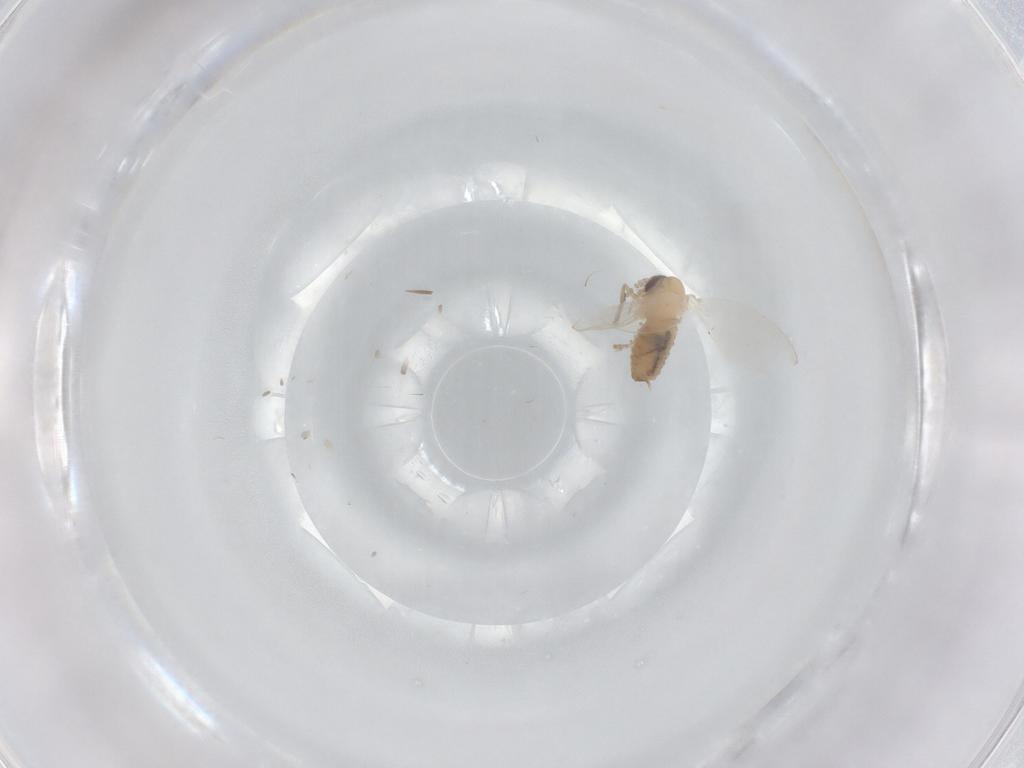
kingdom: Animalia
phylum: Arthropoda
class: Insecta
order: Diptera
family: Psychodidae
